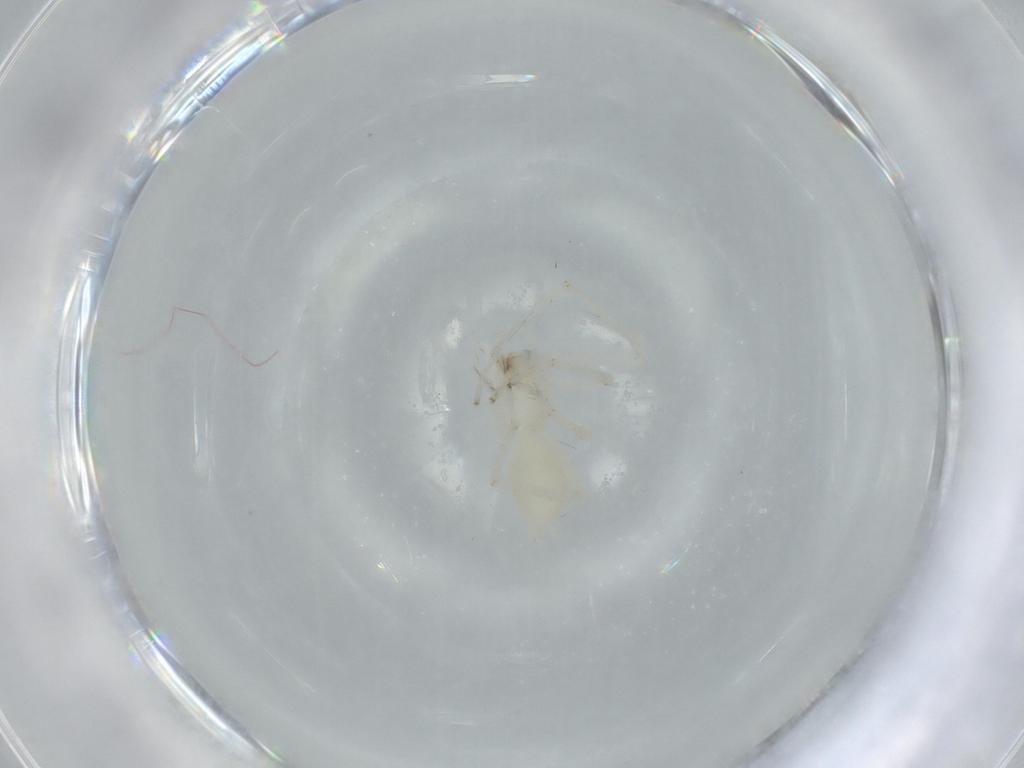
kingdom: Animalia
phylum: Arthropoda
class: Arachnida
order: Araneae
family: Anyphaenidae
